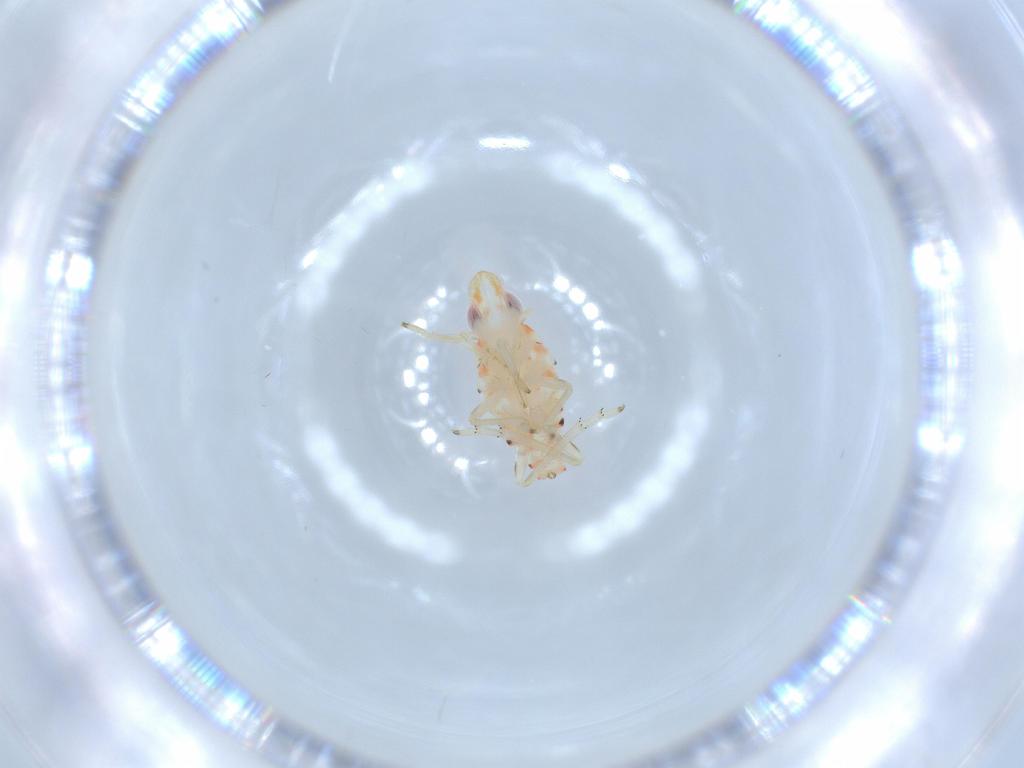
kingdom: Animalia
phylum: Arthropoda
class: Insecta
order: Hemiptera
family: Tropiduchidae
